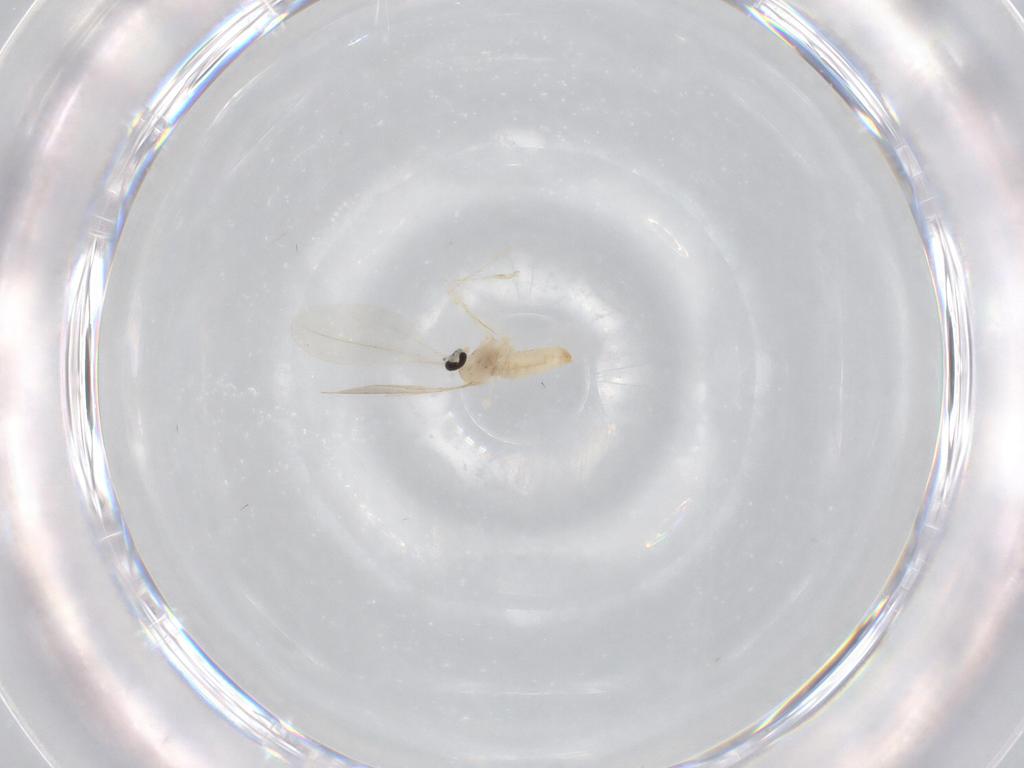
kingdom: Animalia
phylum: Arthropoda
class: Insecta
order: Diptera
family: Cecidomyiidae
